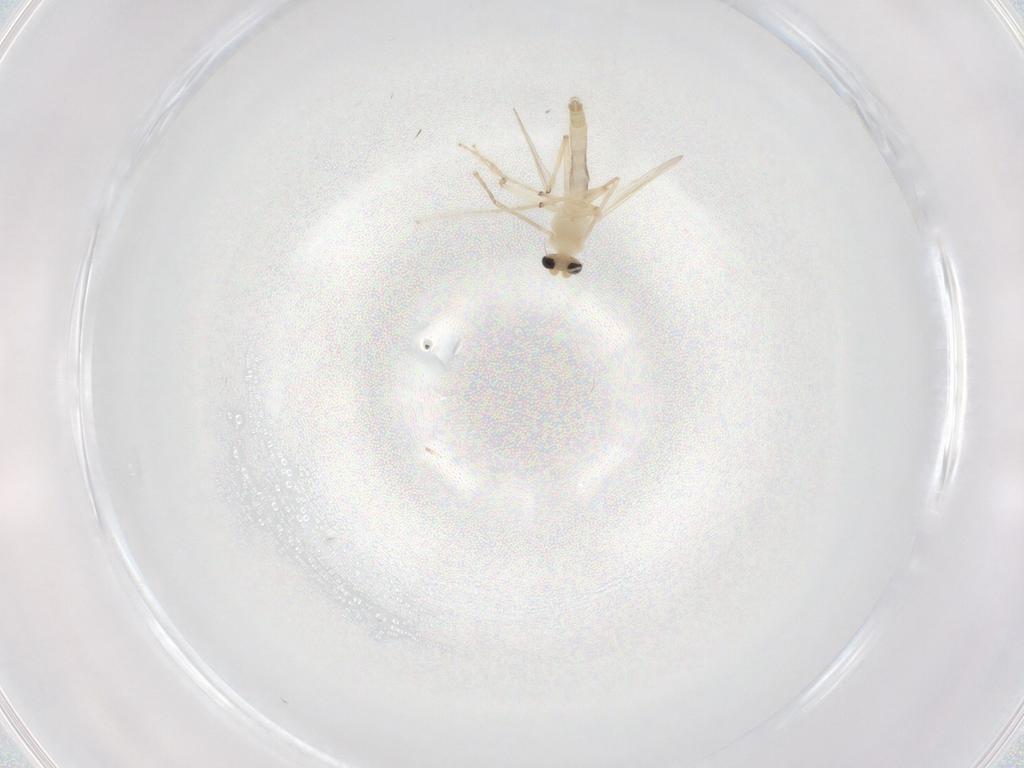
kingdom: Animalia
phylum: Arthropoda
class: Insecta
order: Diptera
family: Chironomidae
